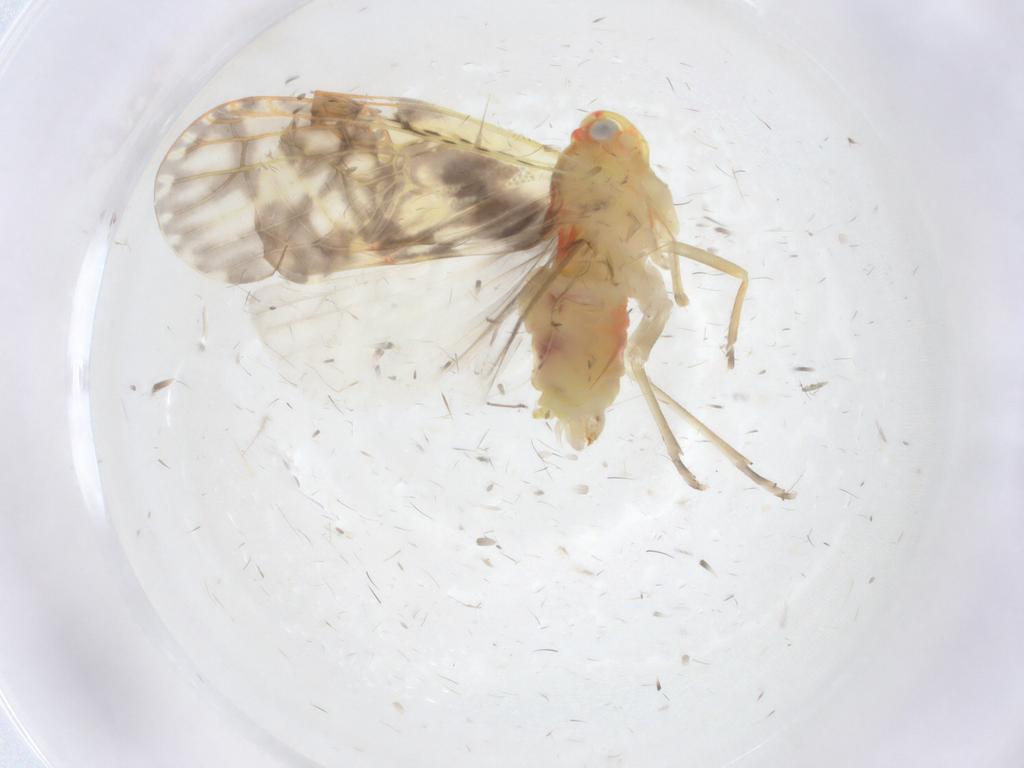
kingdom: Animalia
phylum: Arthropoda
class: Insecta
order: Hemiptera
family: Derbidae
